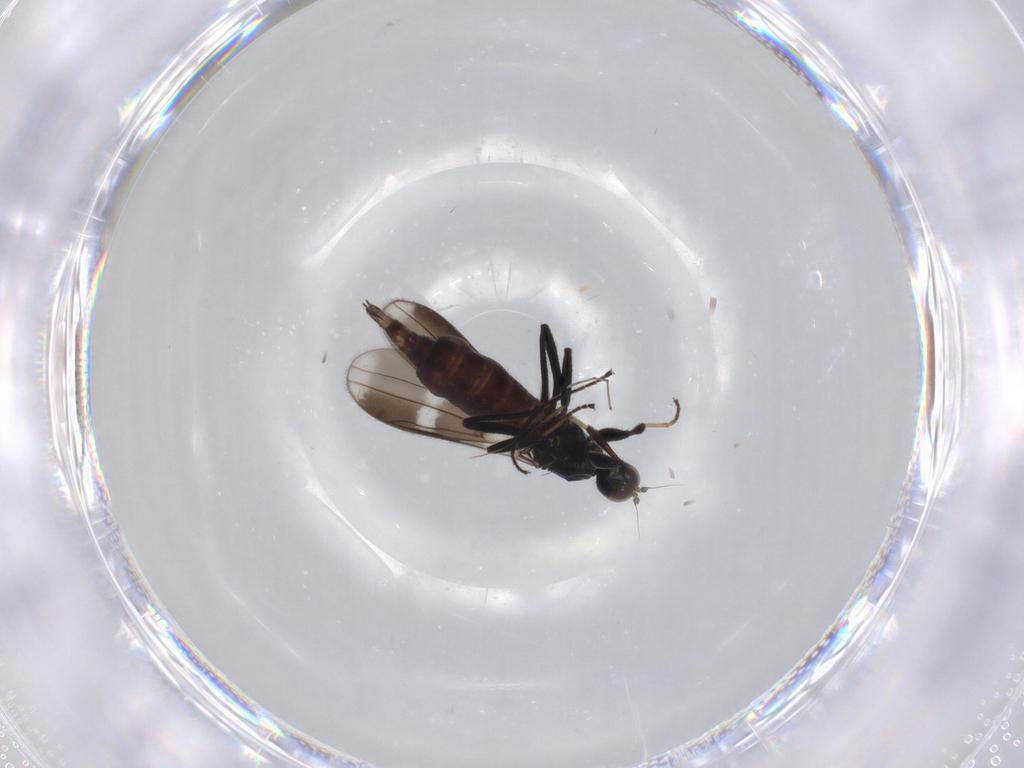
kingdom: Animalia
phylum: Arthropoda
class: Insecta
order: Diptera
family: Hybotidae
